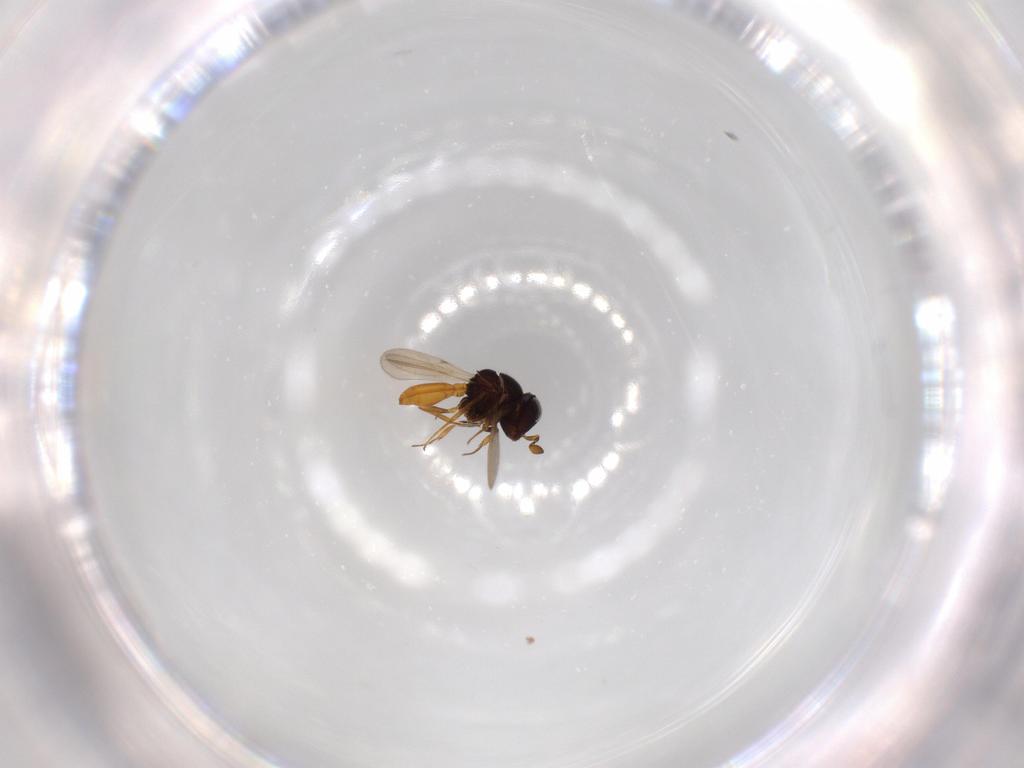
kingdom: Animalia
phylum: Arthropoda
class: Insecta
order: Hymenoptera
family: Scelionidae
